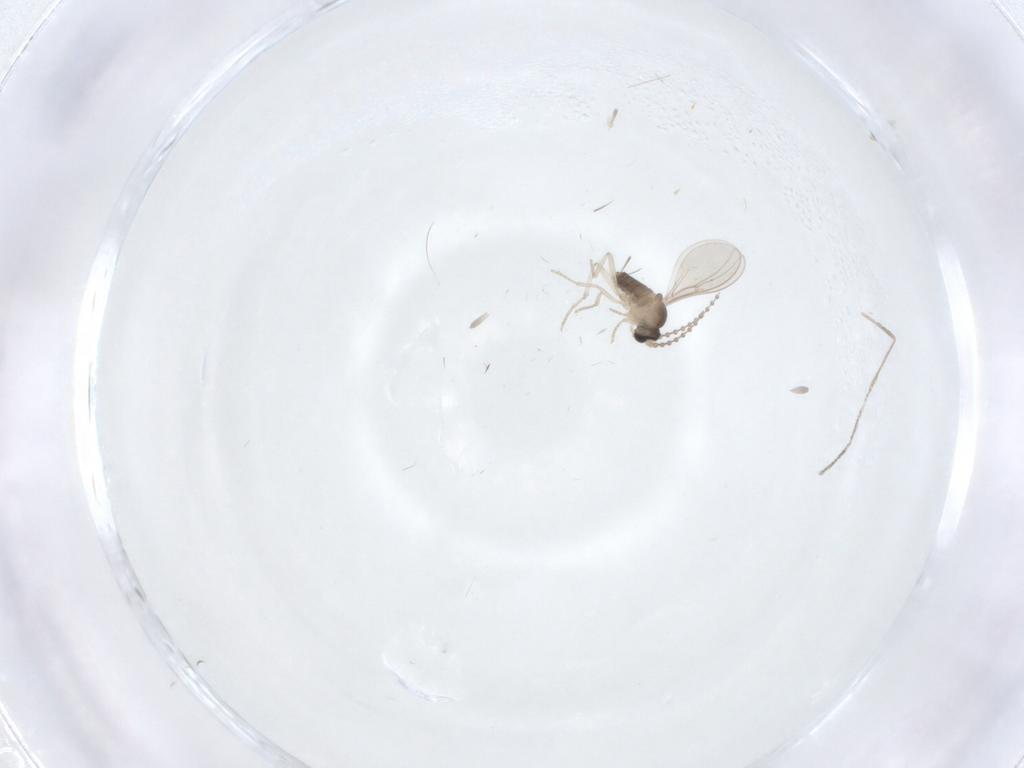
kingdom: Animalia
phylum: Arthropoda
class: Insecta
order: Diptera
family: Cecidomyiidae
